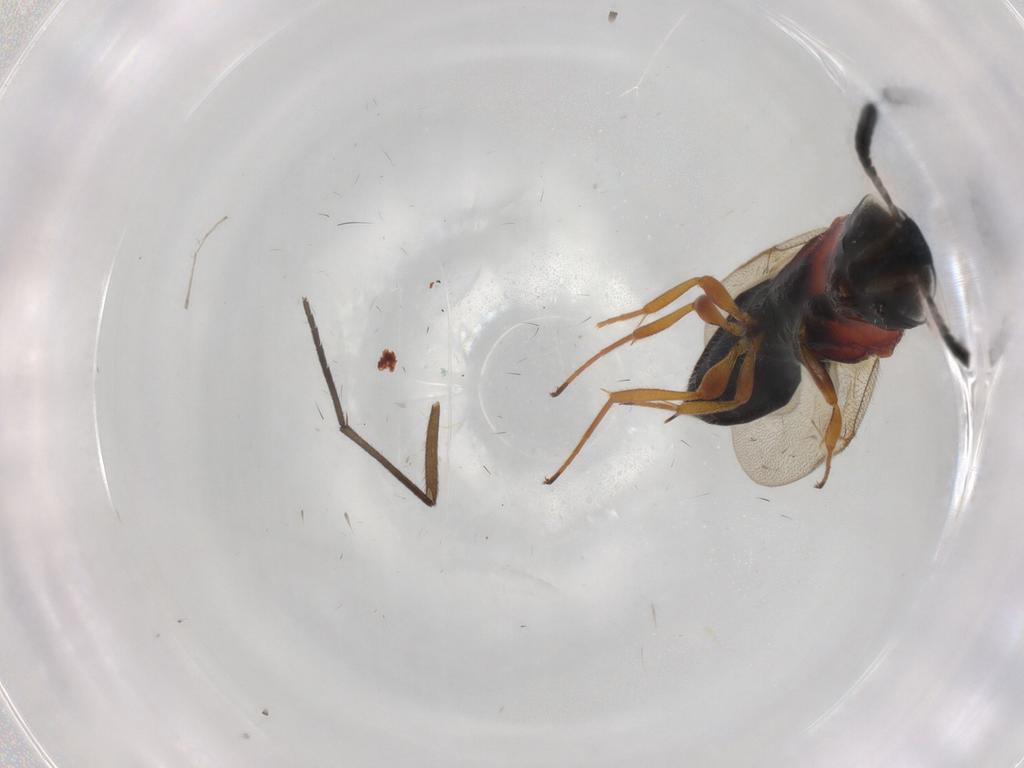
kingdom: Animalia
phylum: Arthropoda
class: Insecta
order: Hymenoptera
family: Scelionidae
